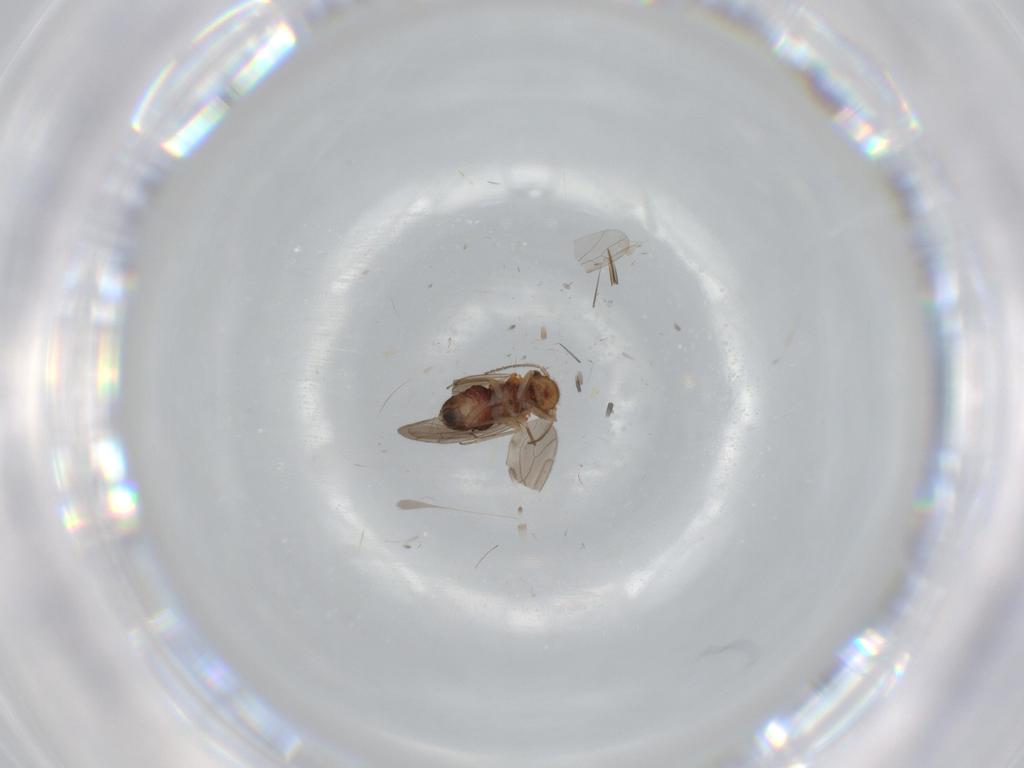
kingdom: Animalia
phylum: Arthropoda
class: Insecta
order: Psocodea
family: Ectopsocidae
